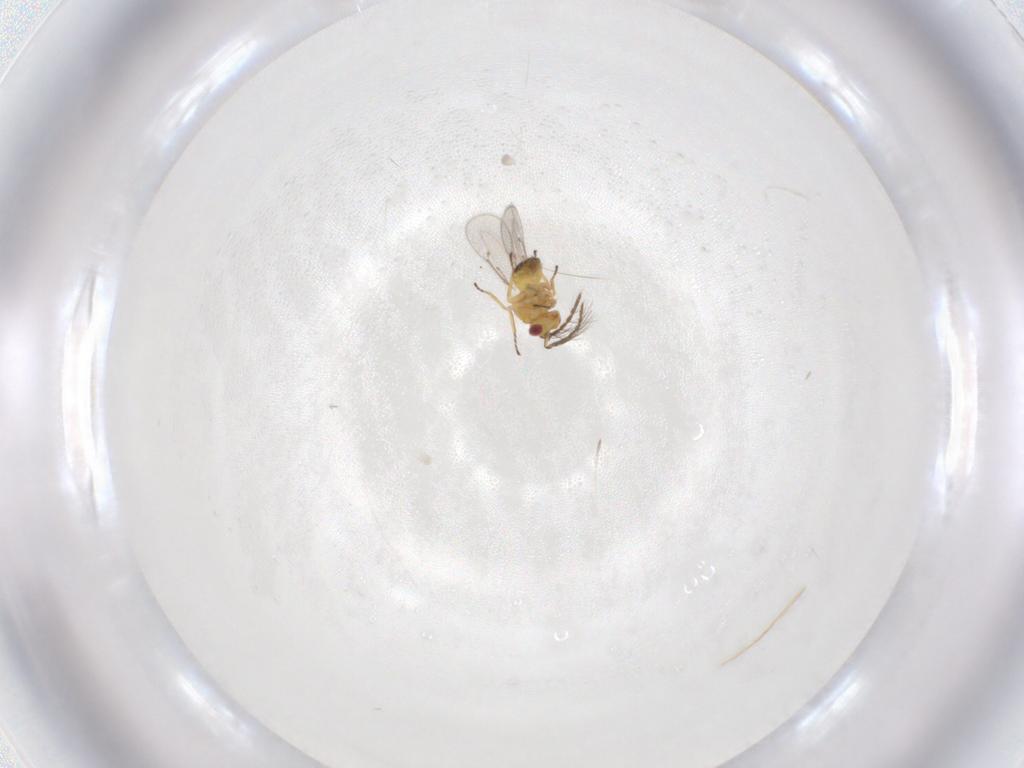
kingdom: Animalia
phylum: Arthropoda
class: Insecta
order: Hymenoptera
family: Eulophidae
